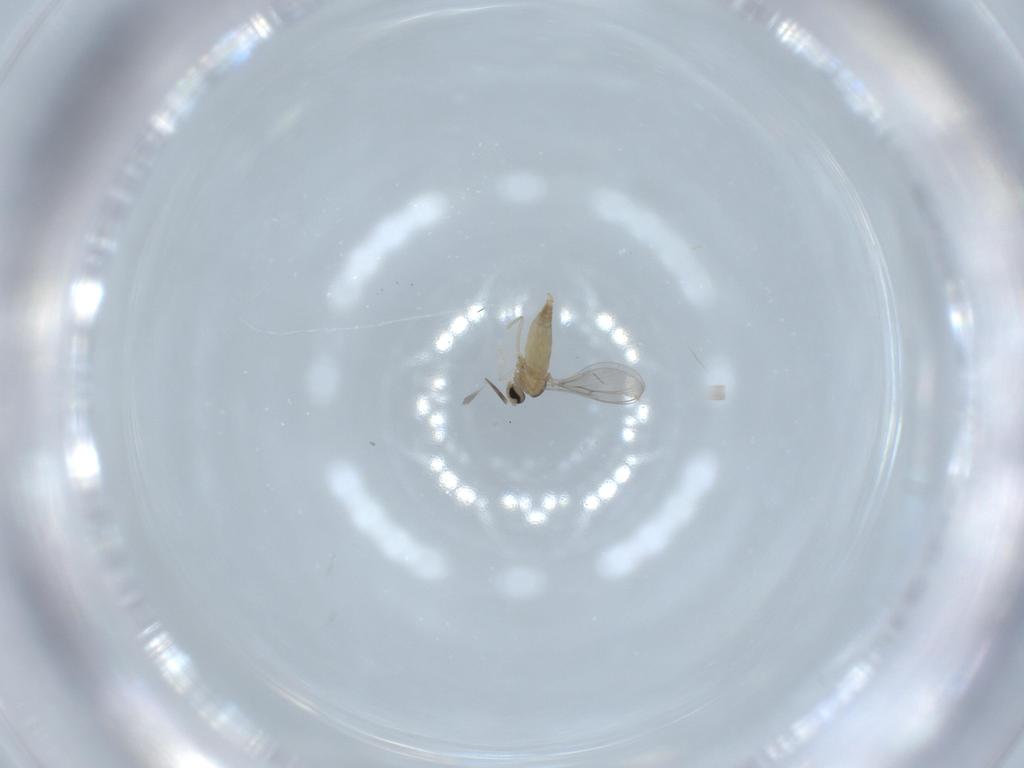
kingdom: Animalia
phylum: Arthropoda
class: Insecta
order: Diptera
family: Cecidomyiidae
